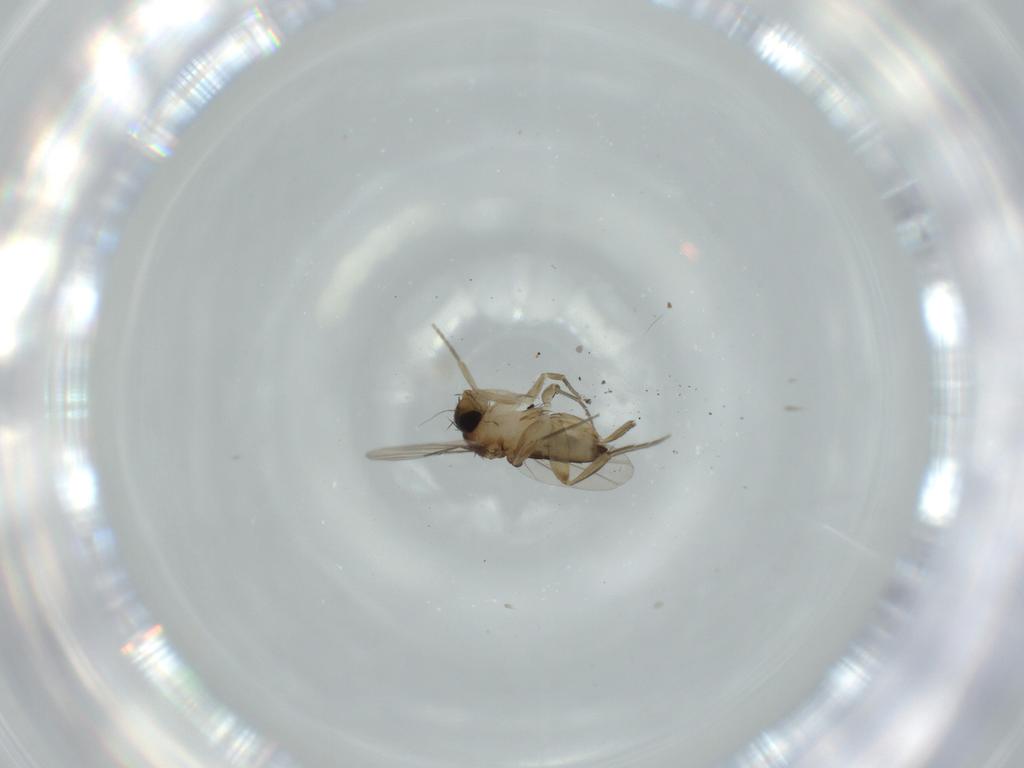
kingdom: Animalia
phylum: Arthropoda
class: Insecta
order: Diptera
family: Phoridae
